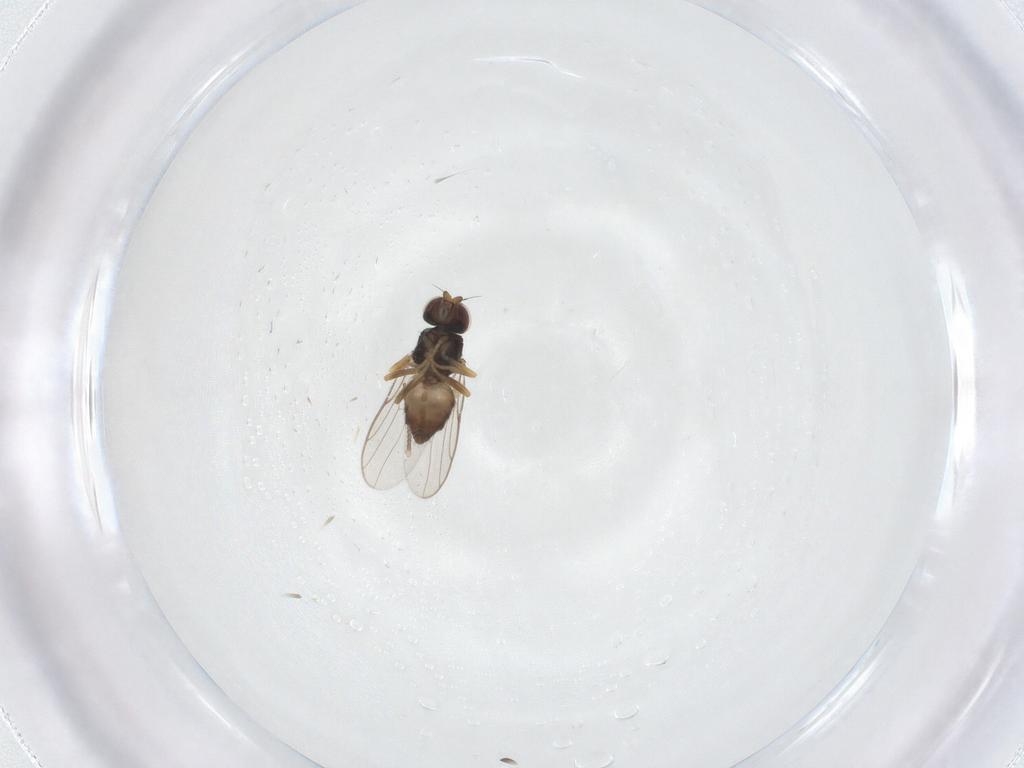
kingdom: Animalia
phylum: Arthropoda
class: Insecta
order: Diptera
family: Chloropidae
